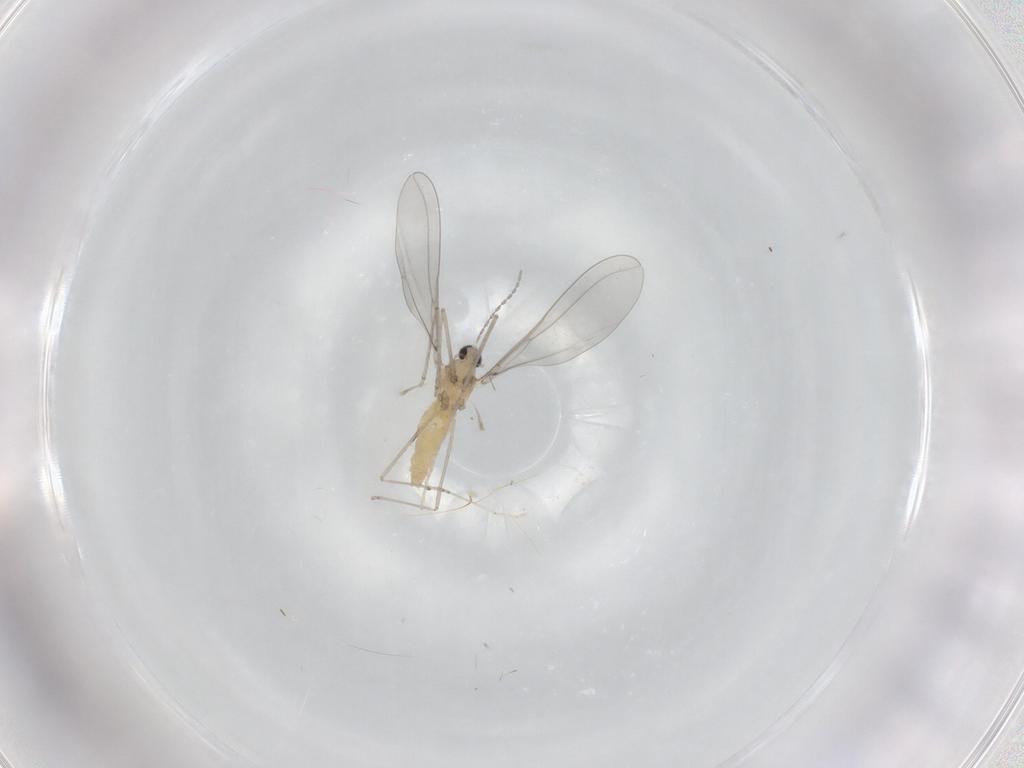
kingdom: Animalia
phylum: Arthropoda
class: Insecta
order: Diptera
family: Cecidomyiidae
